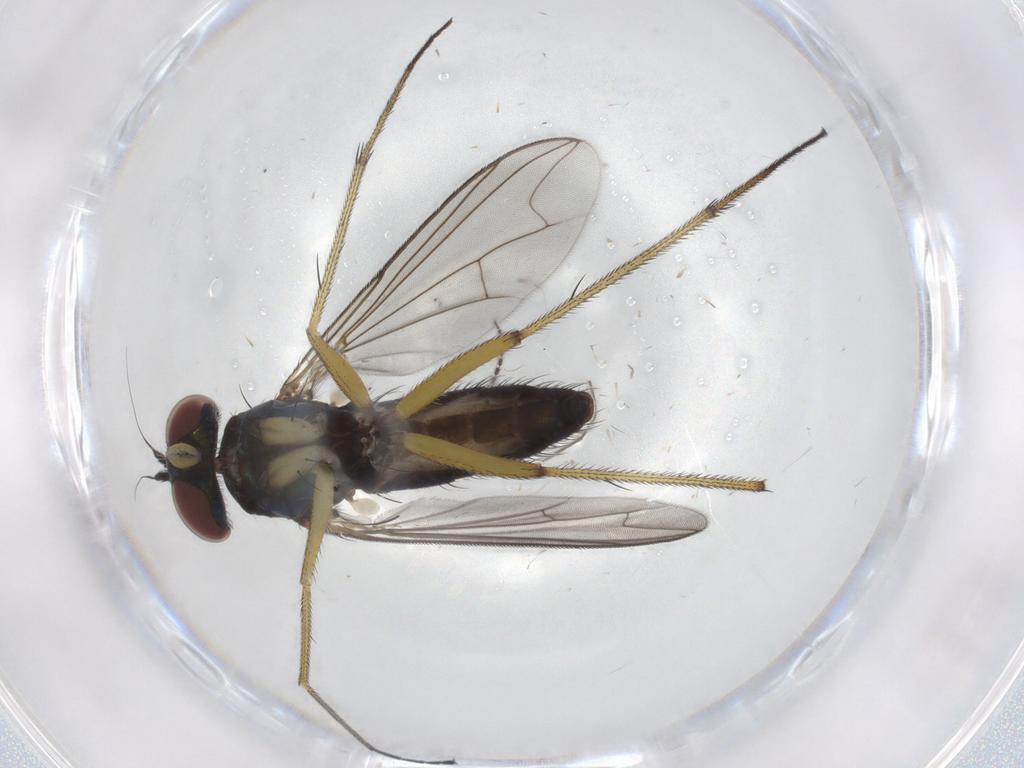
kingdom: Animalia
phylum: Arthropoda
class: Insecta
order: Diptera
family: Dolichopodidae
